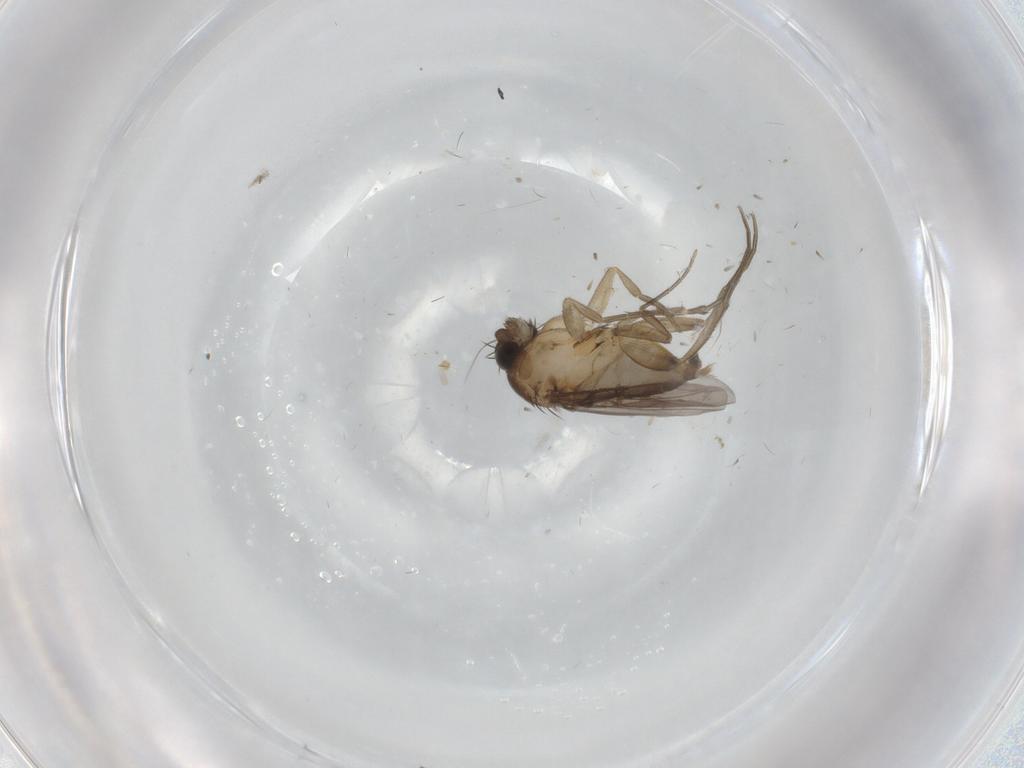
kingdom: Animalia
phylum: Arthropoda
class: Insecta
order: Diptera
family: Phoridae
